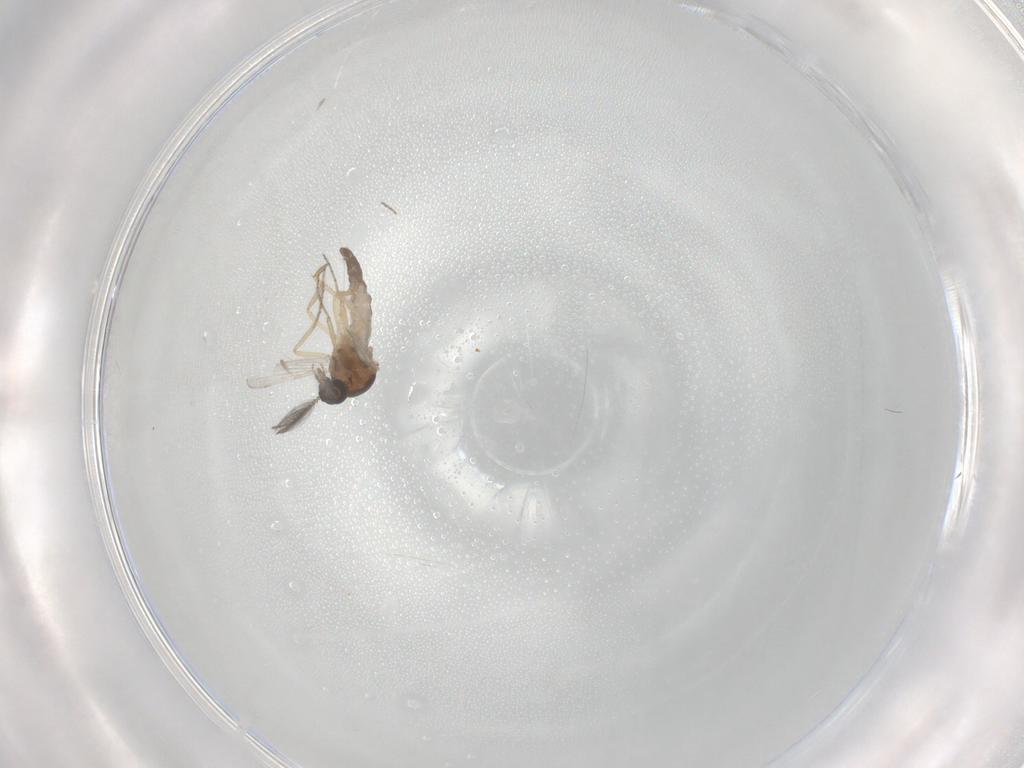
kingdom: Animalia
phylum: Arthropoda
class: Insecta
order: Diptera
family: Ceratopogonidae
